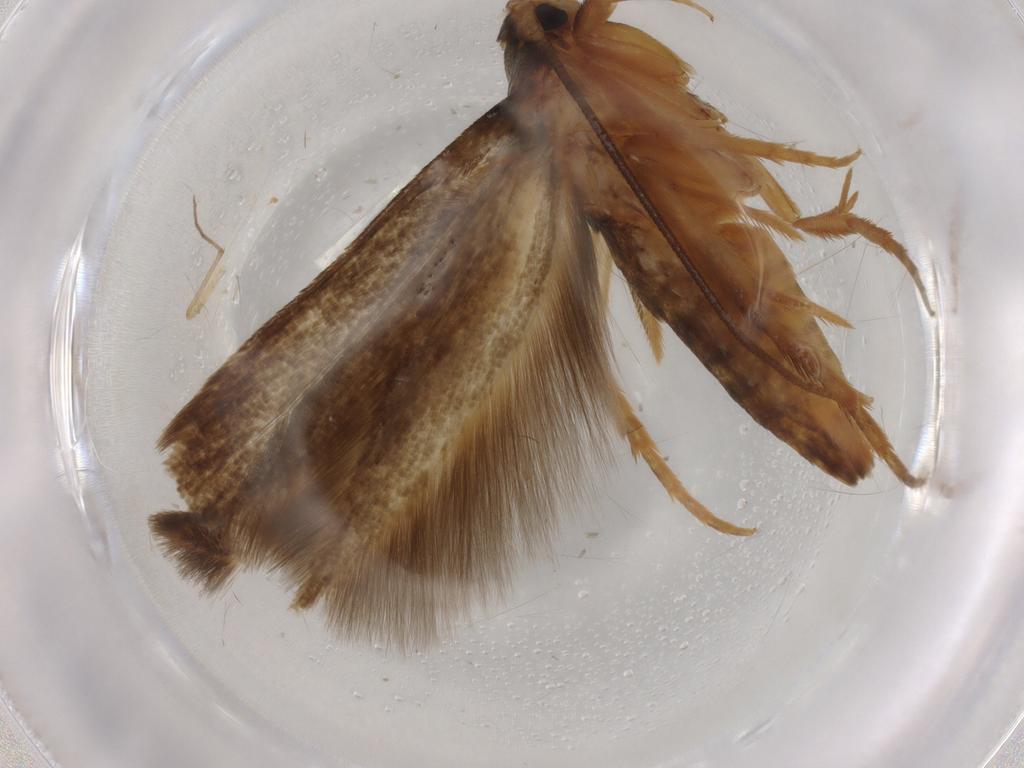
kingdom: Animalia
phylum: Arthropoda
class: Insecta
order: Lepidoptera
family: Tineidae
